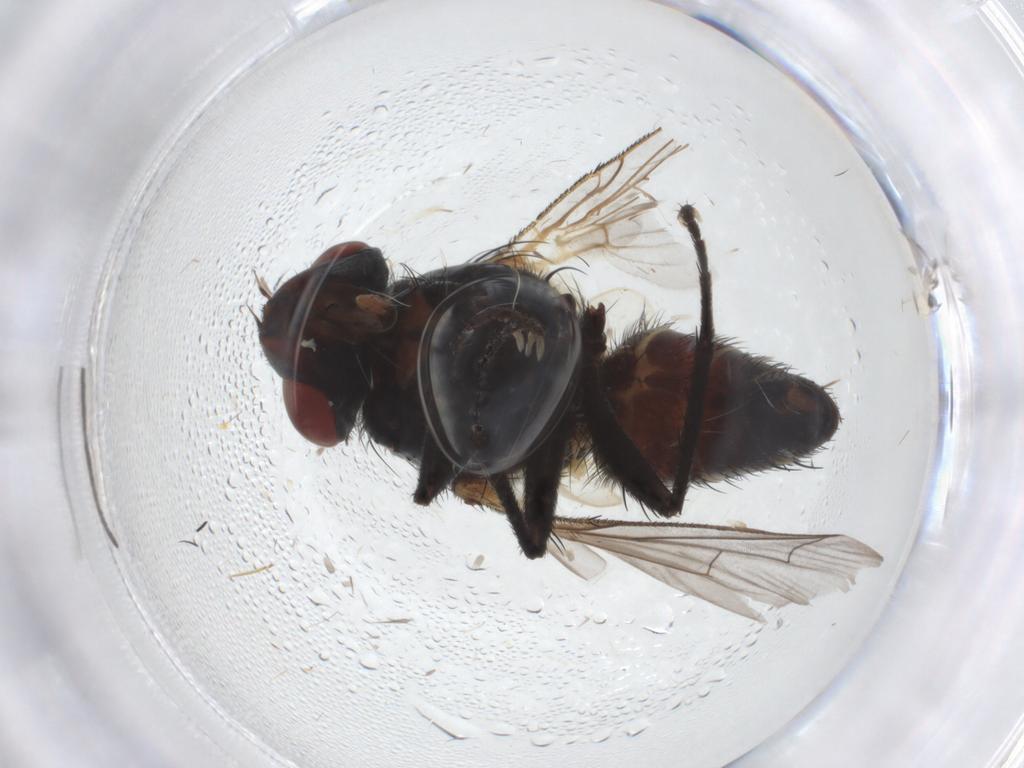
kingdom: Animalia
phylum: Arthropoda
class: Insecta
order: Diptera
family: Sarcophagidae
